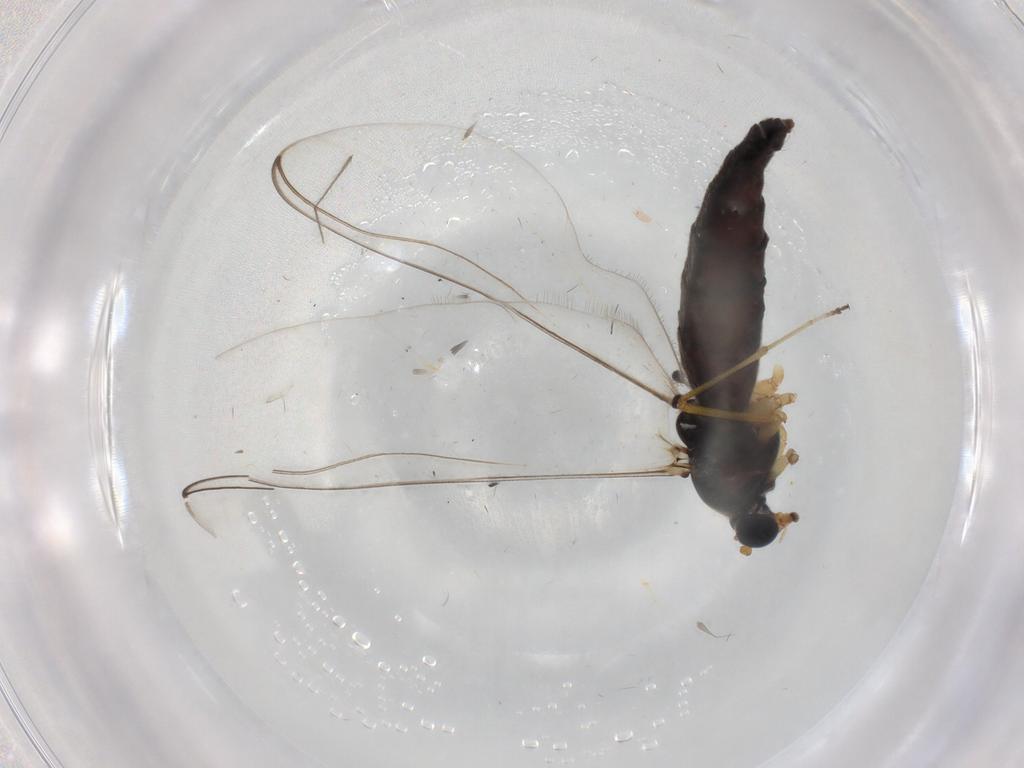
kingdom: Animalia
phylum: Arthropoda
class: Insecta
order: Diptera
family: Ceratopogonidae
